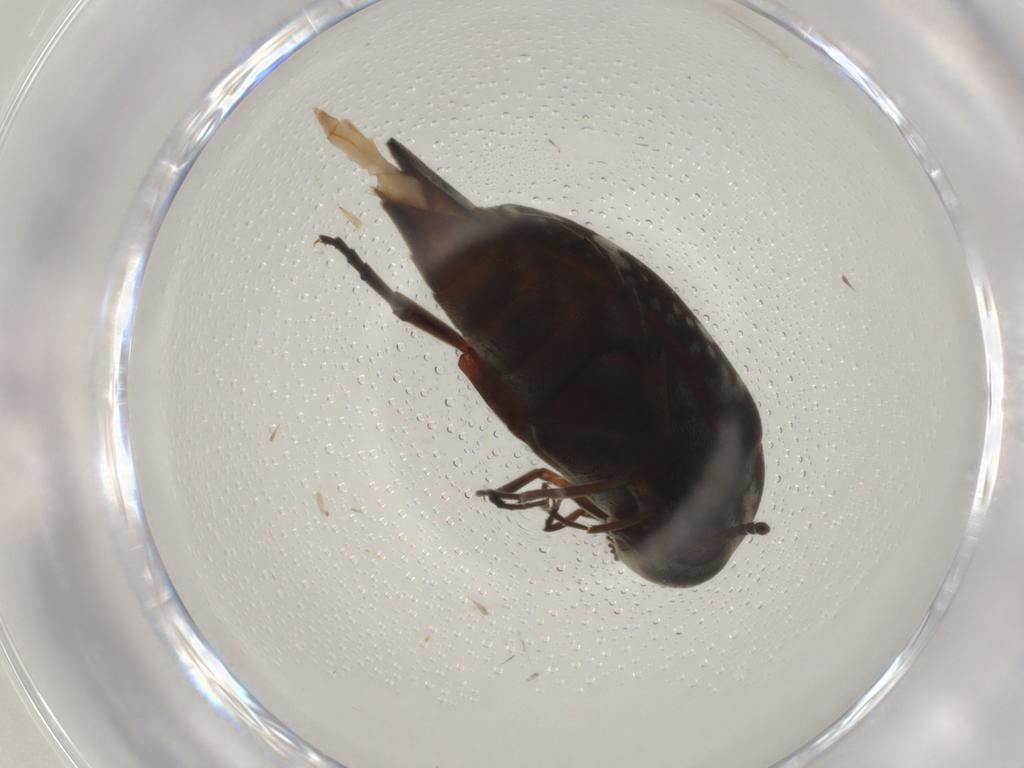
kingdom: Animalia
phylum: Arthropoda
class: Insecta
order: Coleoptera
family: Mordellidae
